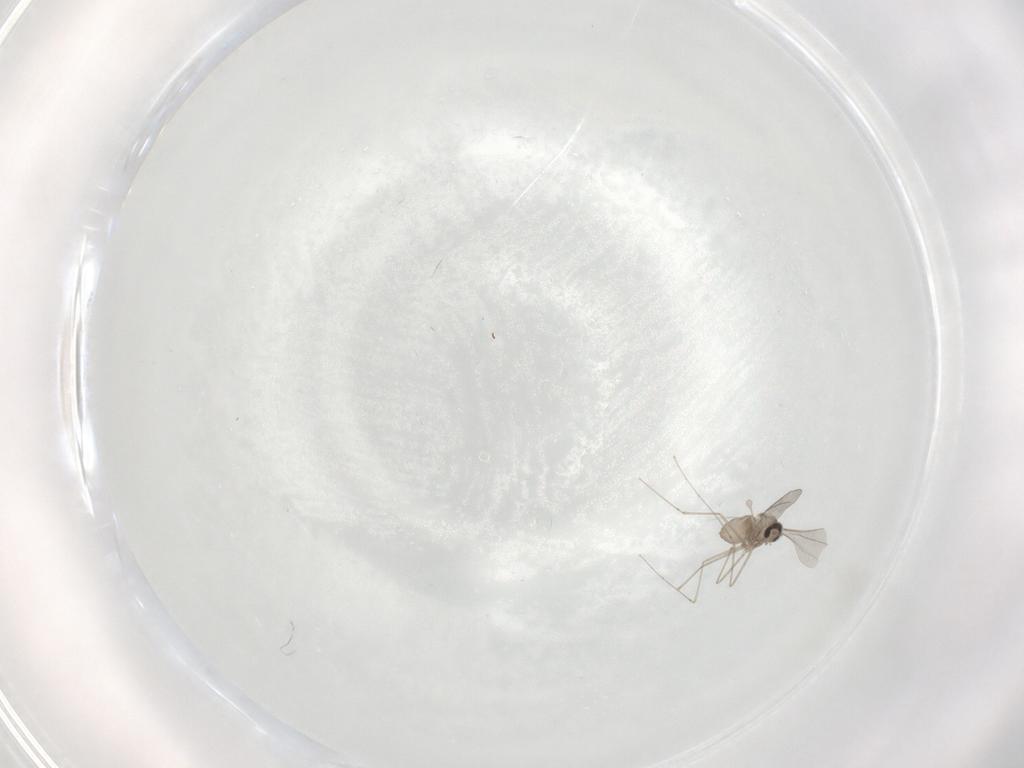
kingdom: Animalia
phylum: Arthropoda
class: Insecta
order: Diptera
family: Cecidomyiidae
